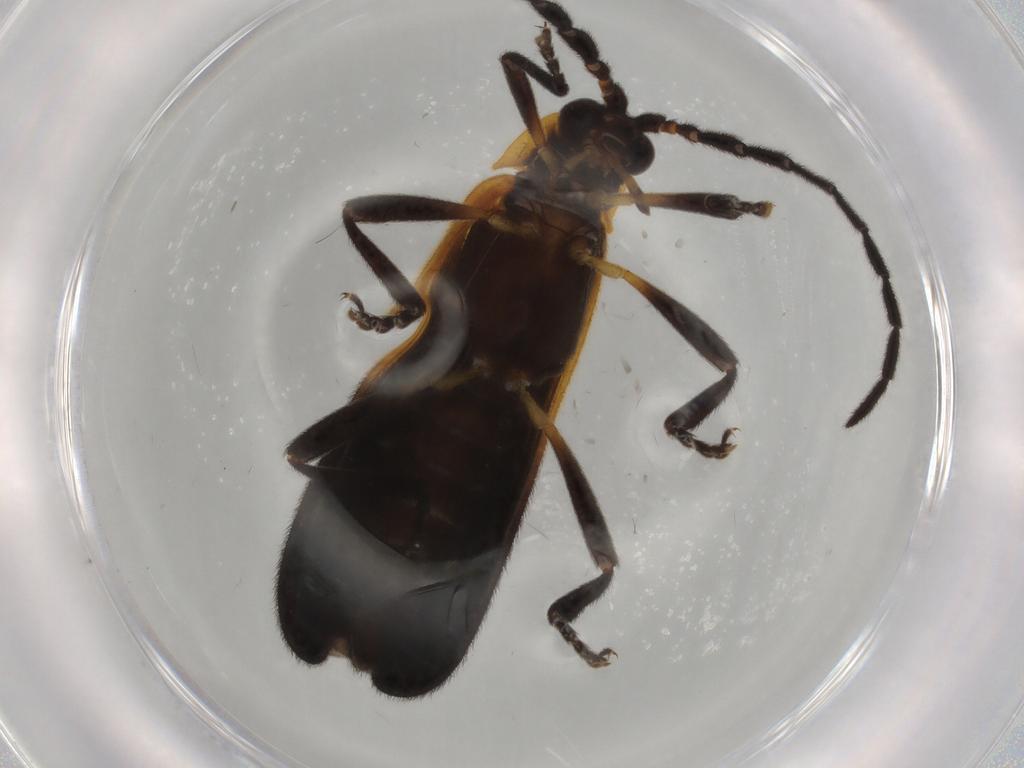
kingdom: Animalia
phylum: Arthropoda
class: Insecta
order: Coleoptera
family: Lycidae
